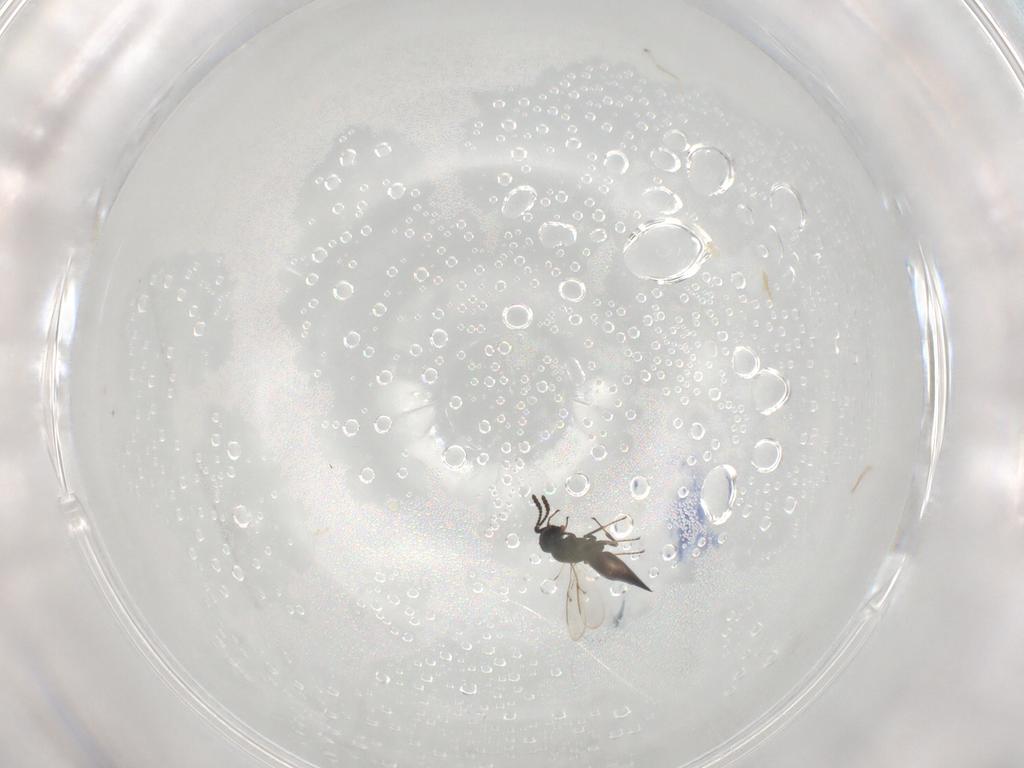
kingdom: Animalia
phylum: Arthropoda
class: Insecta
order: Hymenoptera
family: Scelionidae
